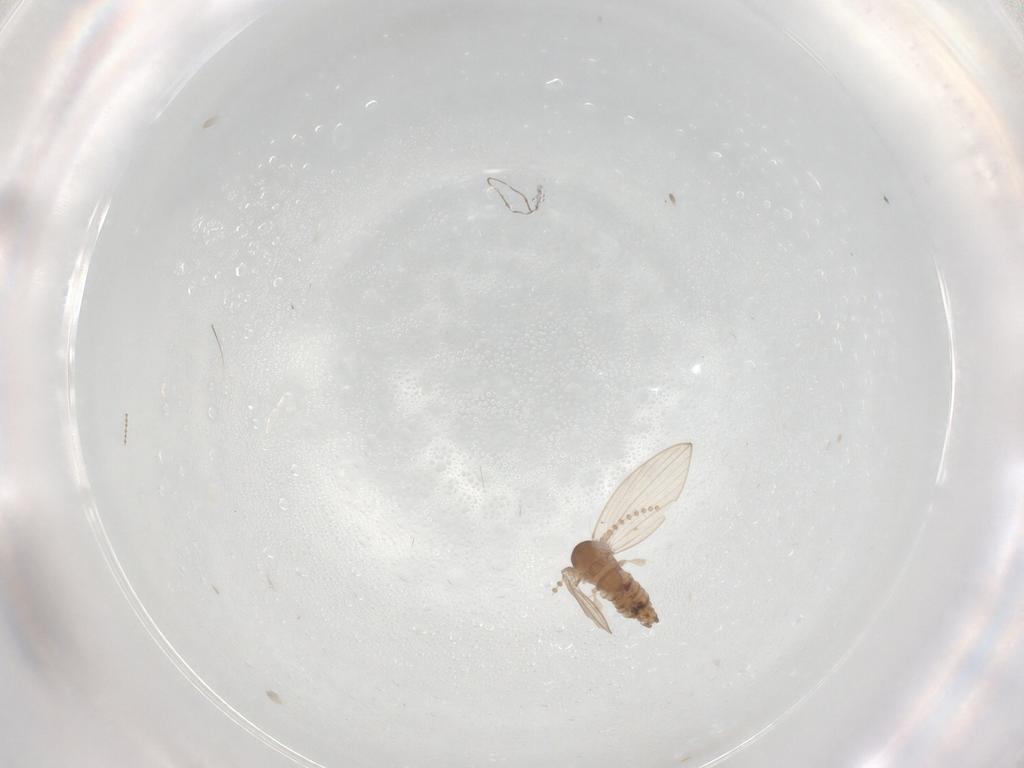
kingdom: Animalia
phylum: Arthropoda
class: Insecta
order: Diptera
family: Psychodidae
